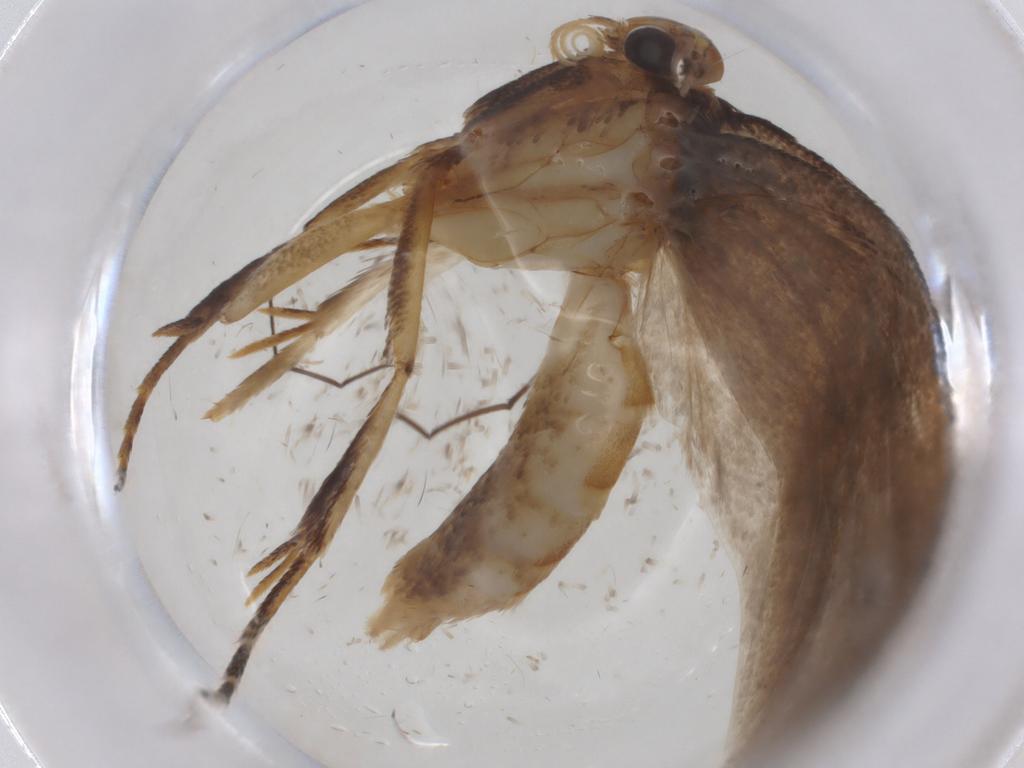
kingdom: Animalia
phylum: Arthropoda
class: Insecta
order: Lepidoptera
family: Oecophoridae
